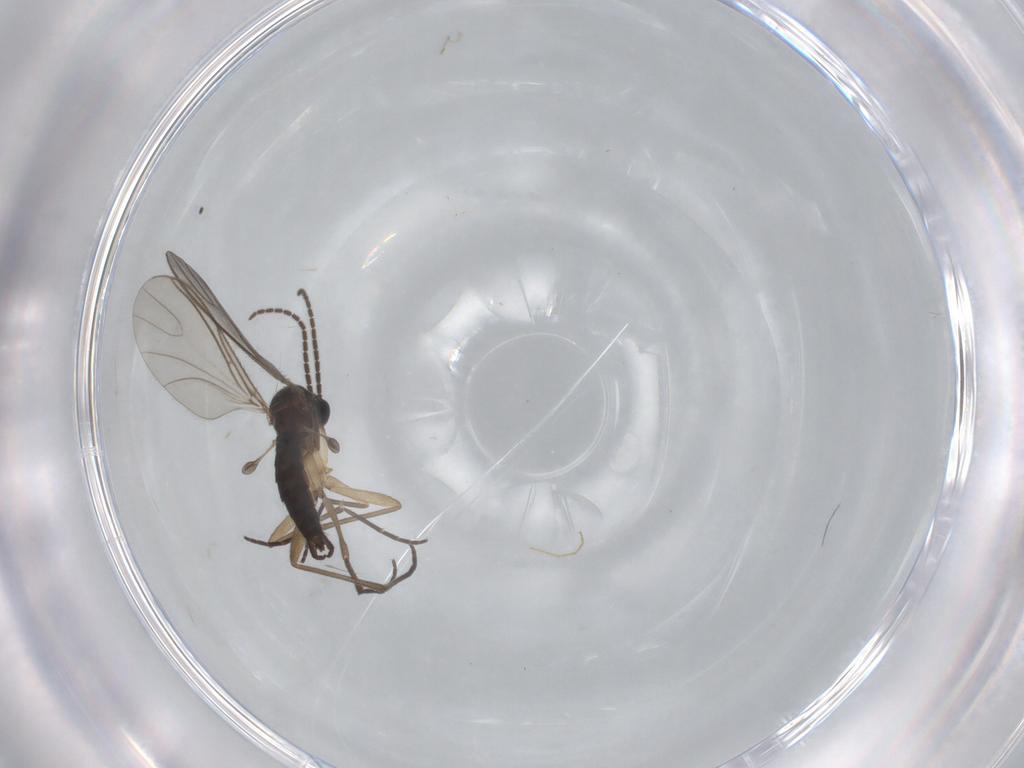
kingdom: Animalia
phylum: Arthropoda
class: Insecta
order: Diptera
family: Sciaridae
